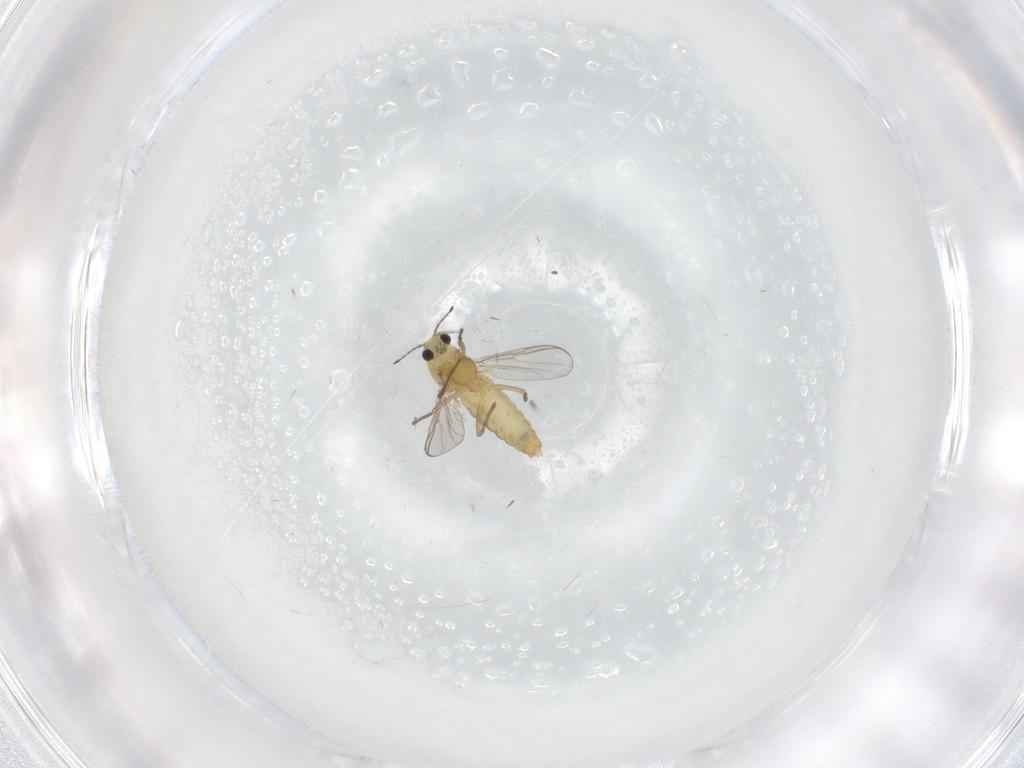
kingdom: Animalia
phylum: Arthropoda
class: Insecta
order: Diptera
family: Chironomidae
